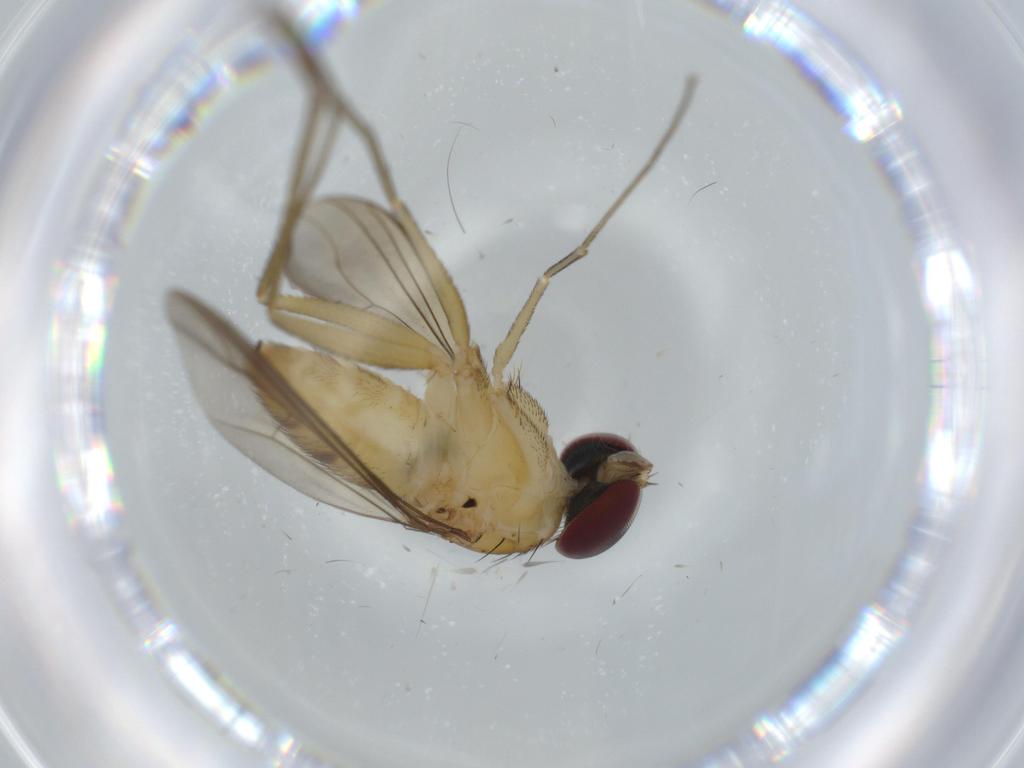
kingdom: Animalia
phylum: Arthropoda
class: Insecta
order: Diptera
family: Dolichopodidae
